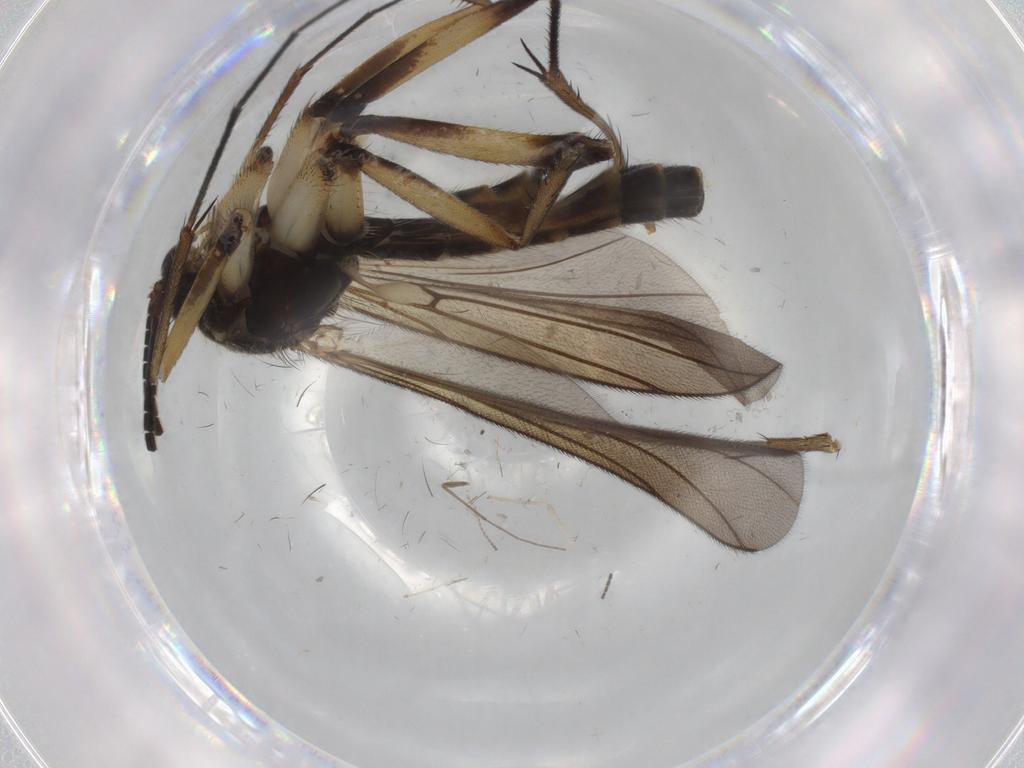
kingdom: Animalia
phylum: Arthropoda
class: Insecta
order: Diptera
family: Mycetophilidae
